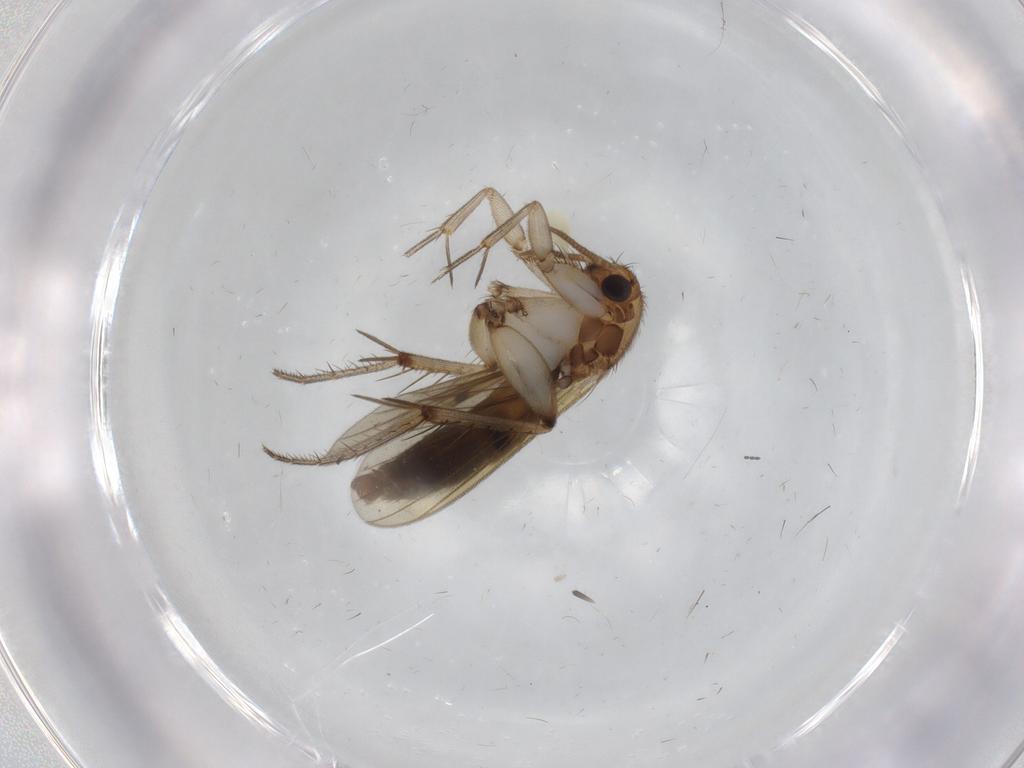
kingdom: Animalia
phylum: Arthropoda
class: Insecta
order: Diptera
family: Mycetophilidae
